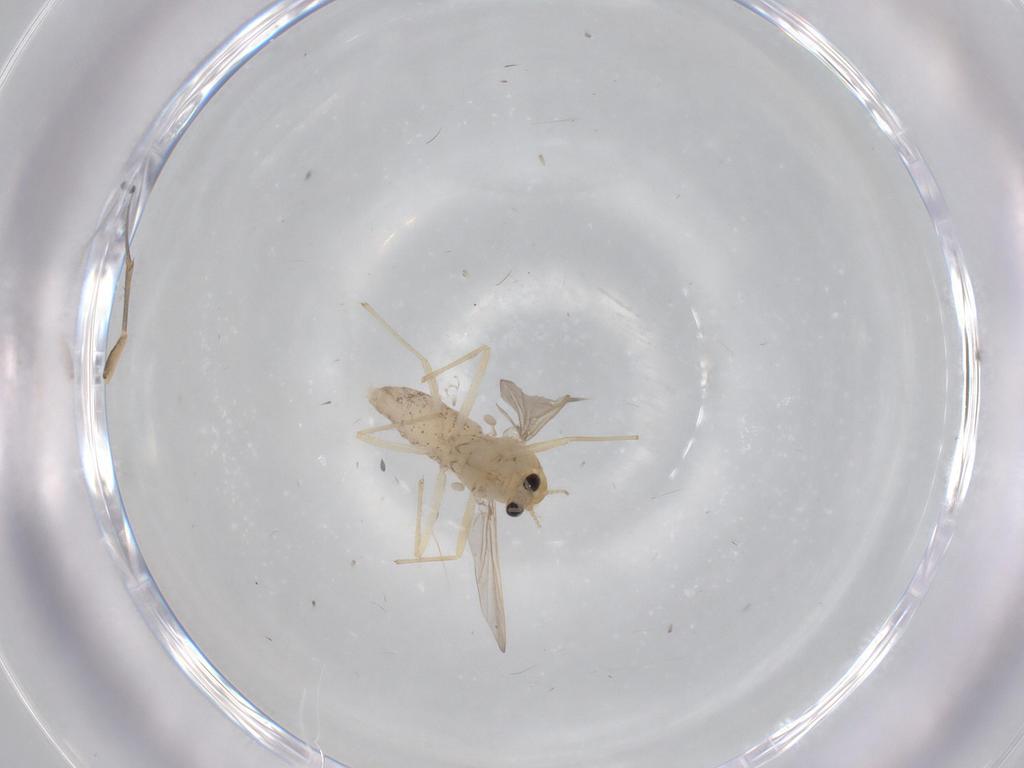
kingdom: Animalia
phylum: Arthropoda
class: Insecta
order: Diptera
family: Chironomidae
